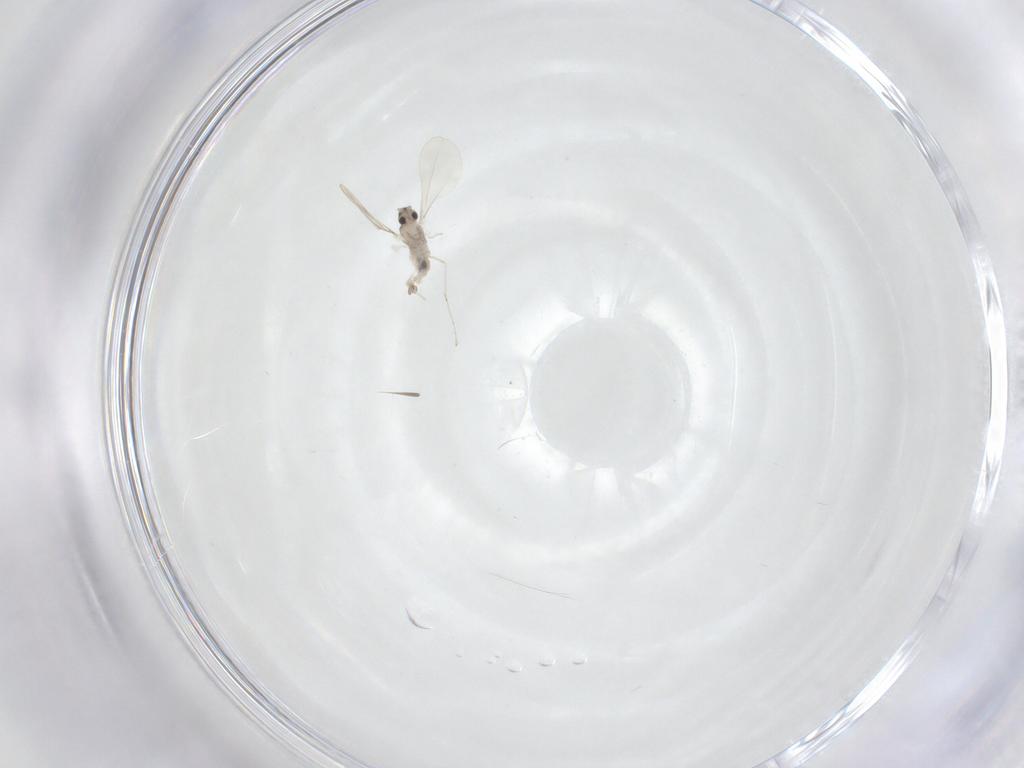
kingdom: Animalia
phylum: Arthropoda
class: Insecta
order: Diptera
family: Cecidomyiidae
